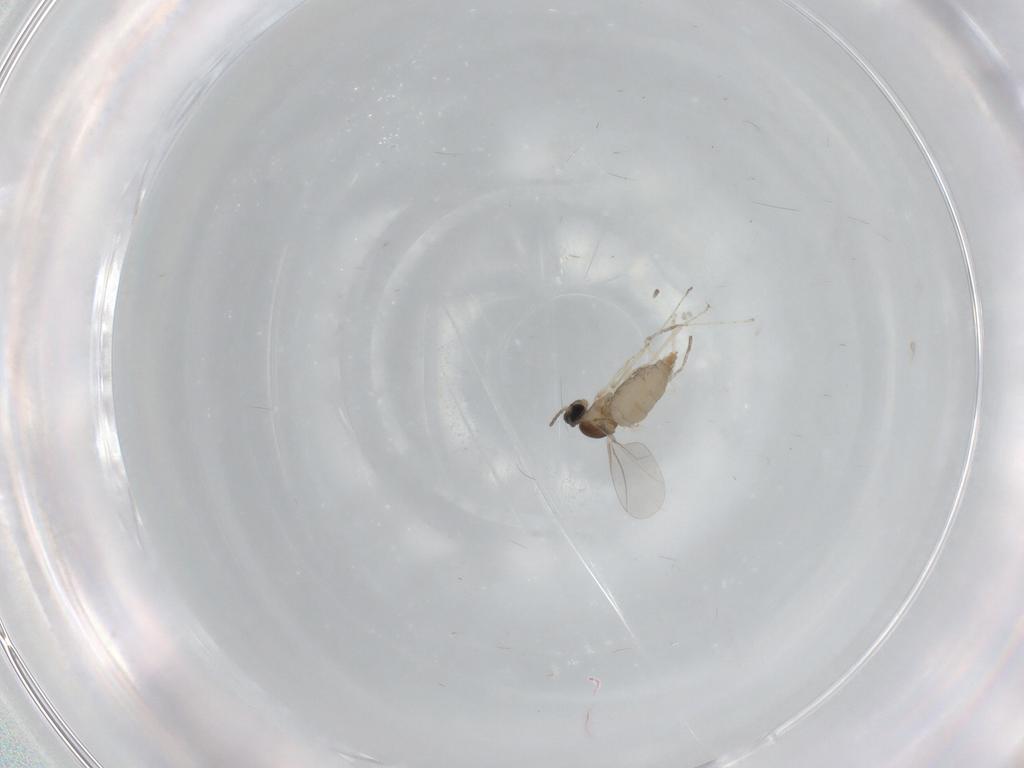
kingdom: Animalia
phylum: Arthropoda
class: Insecta
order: Diptera
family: Cecidomyiidae
